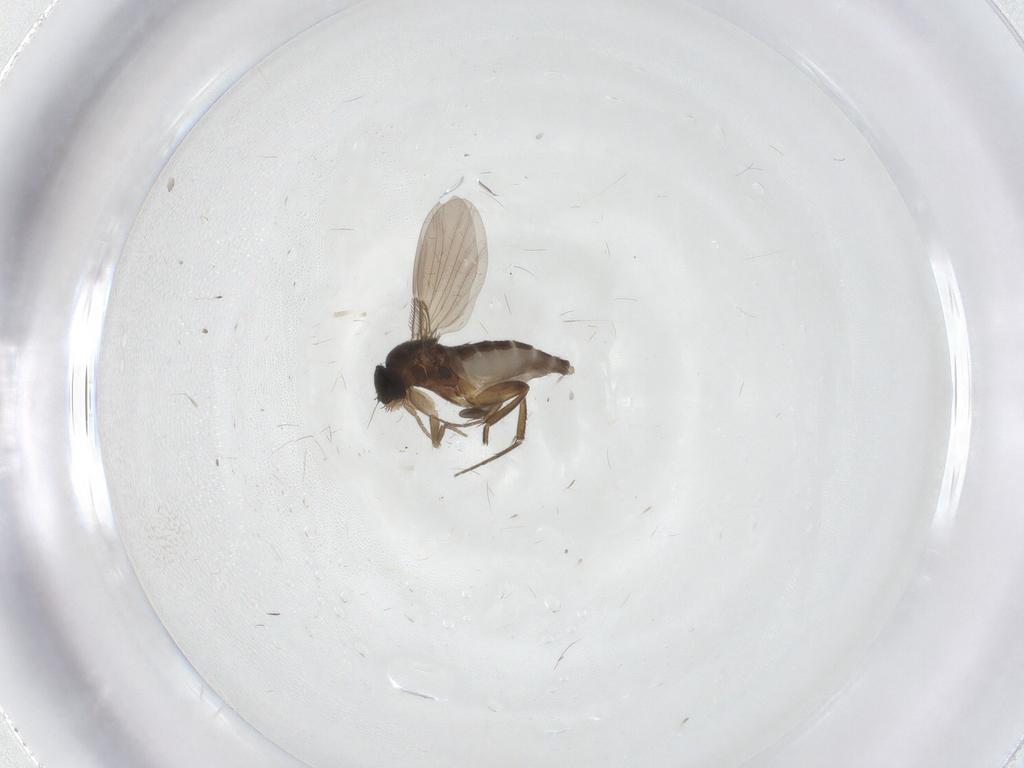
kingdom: Animalia
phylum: Arthropoda
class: Insecta
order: Diptera
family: Phoridae
